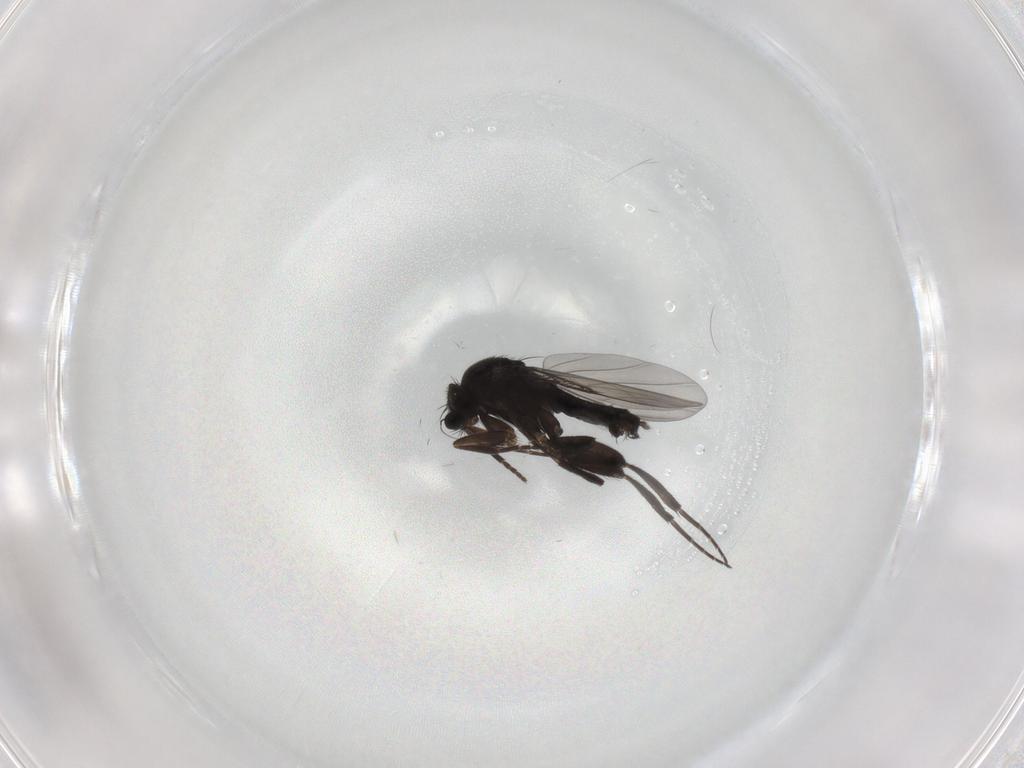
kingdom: Animalia
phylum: Arthropoda
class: Insecta
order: Diptera
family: Phoridae
